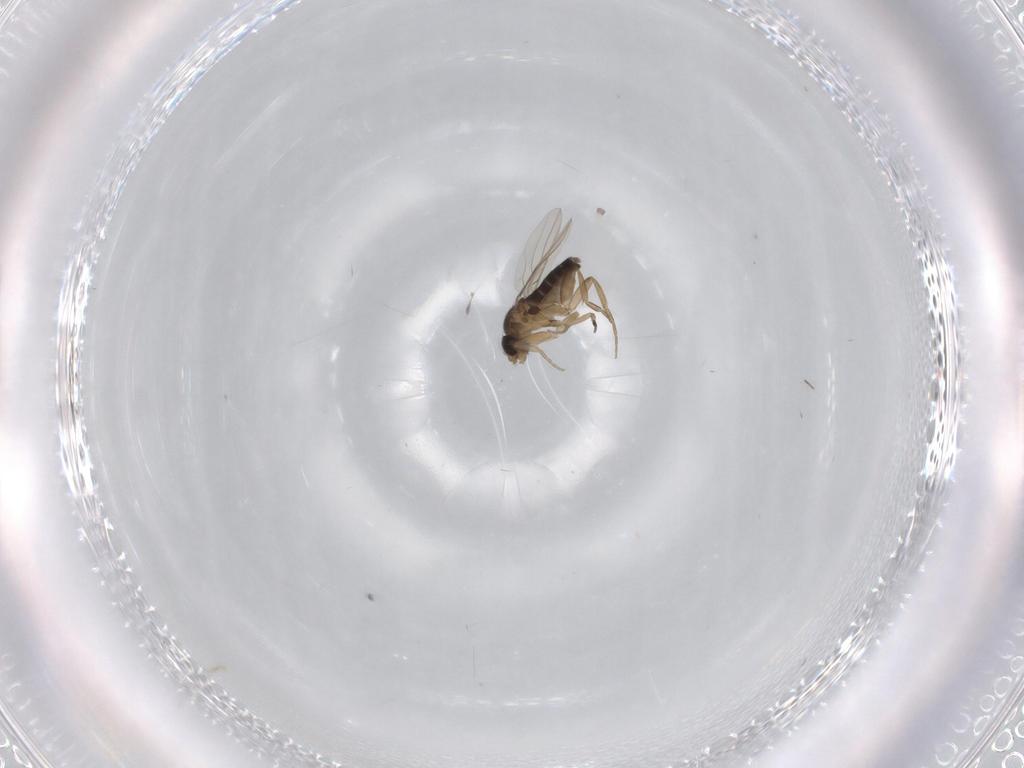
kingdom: Animalia
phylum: Arthropoda
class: Insecta
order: Diptera
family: Phoridae
